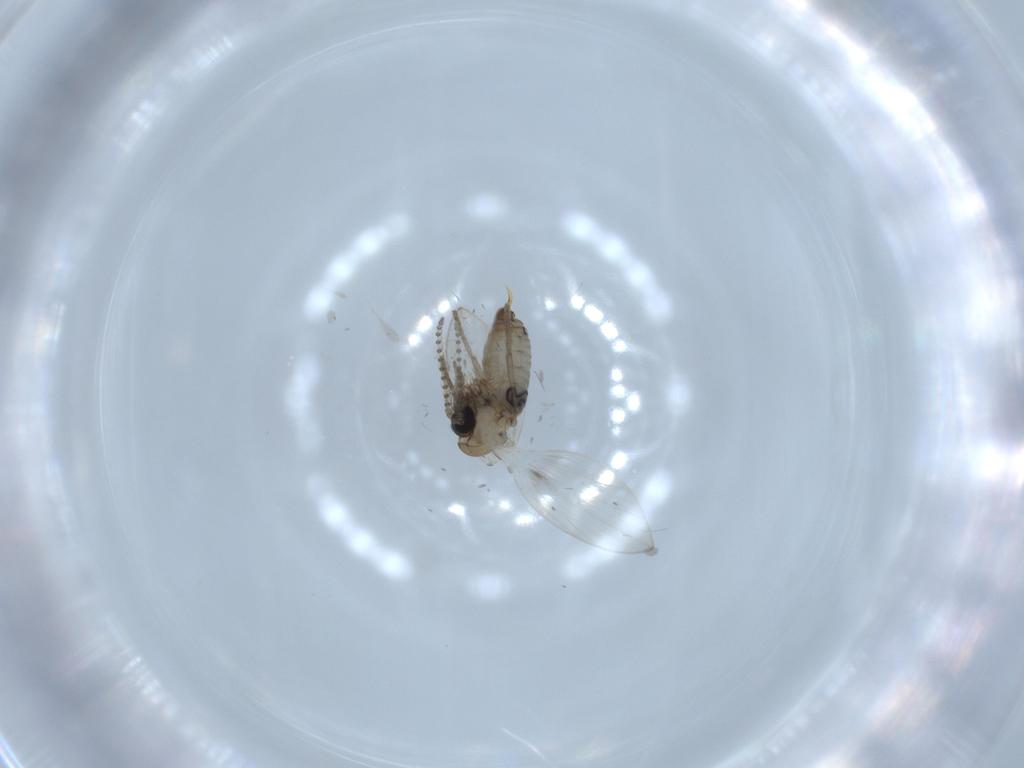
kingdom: Animalia
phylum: Arthropoda
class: Insecta
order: Diptera
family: Psychodidae
